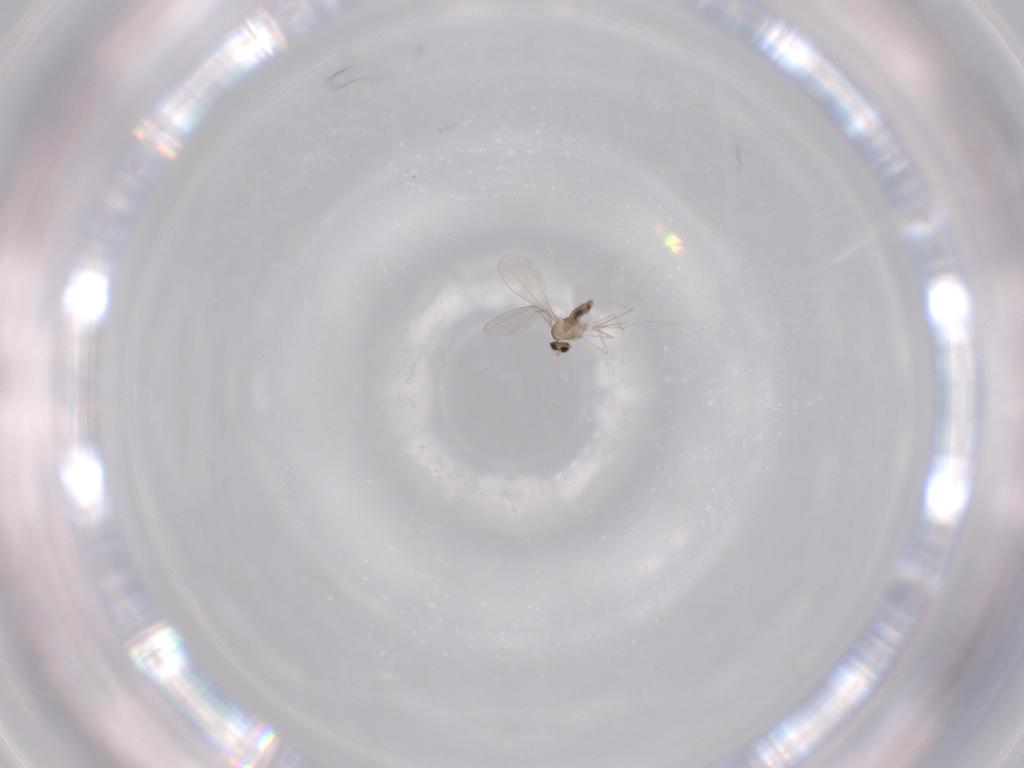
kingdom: Animalia
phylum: Arthropoda
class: Insecta
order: Diptera
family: Cecidomyiidae
